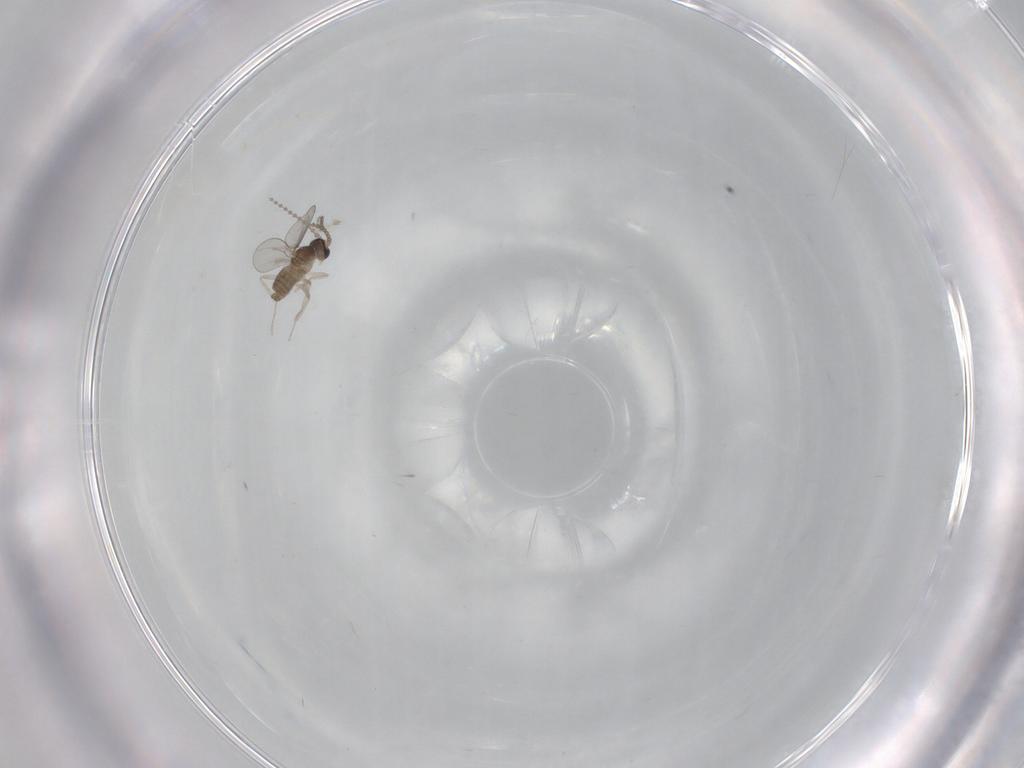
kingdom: Animalia
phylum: Arthropoda
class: Insecta
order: Diptera
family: Cecidomyiidae
